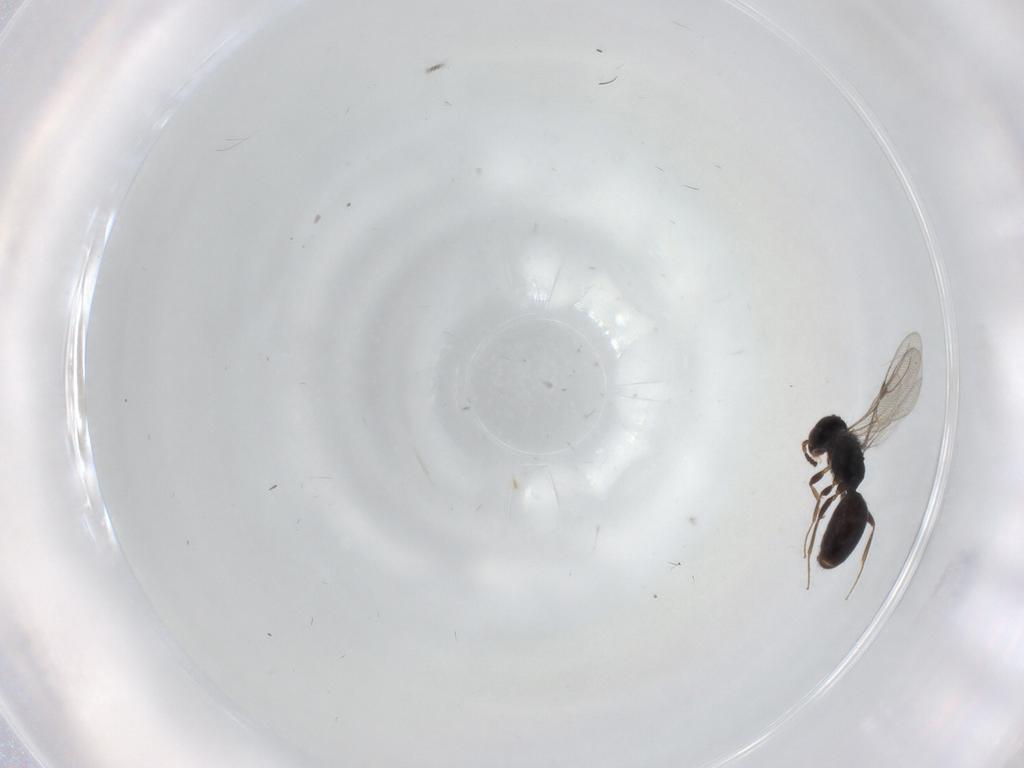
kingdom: Animalia
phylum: Arthropoda
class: Insecta
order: Hymenoptera
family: Bethylidae
